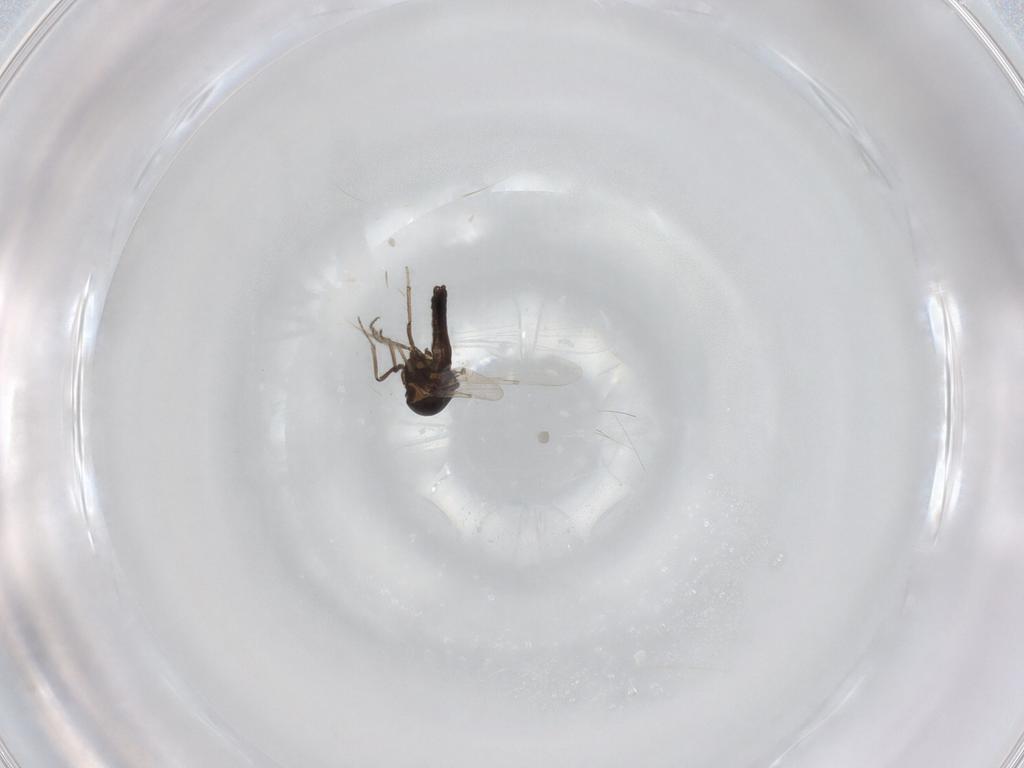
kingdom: Animalia
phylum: Arthropoda
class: Insecta
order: Diptera
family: Ceratopogonidae
